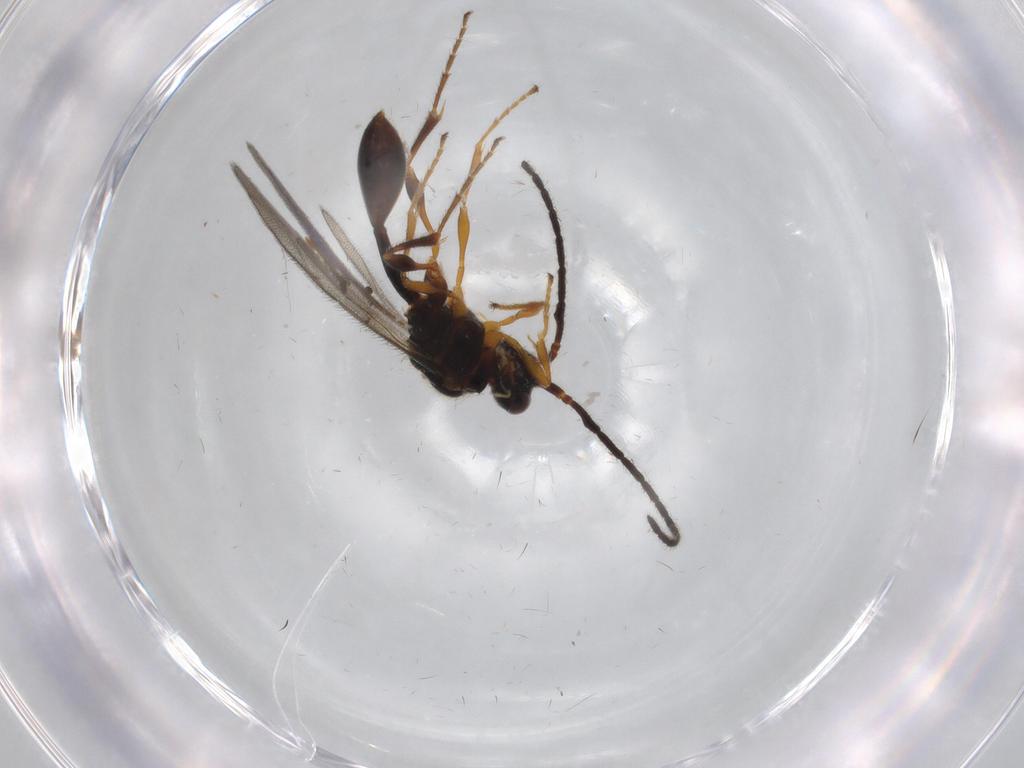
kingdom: Animalia
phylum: Arthropoda
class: Insecta
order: Hymenoptera
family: Diapriidae
